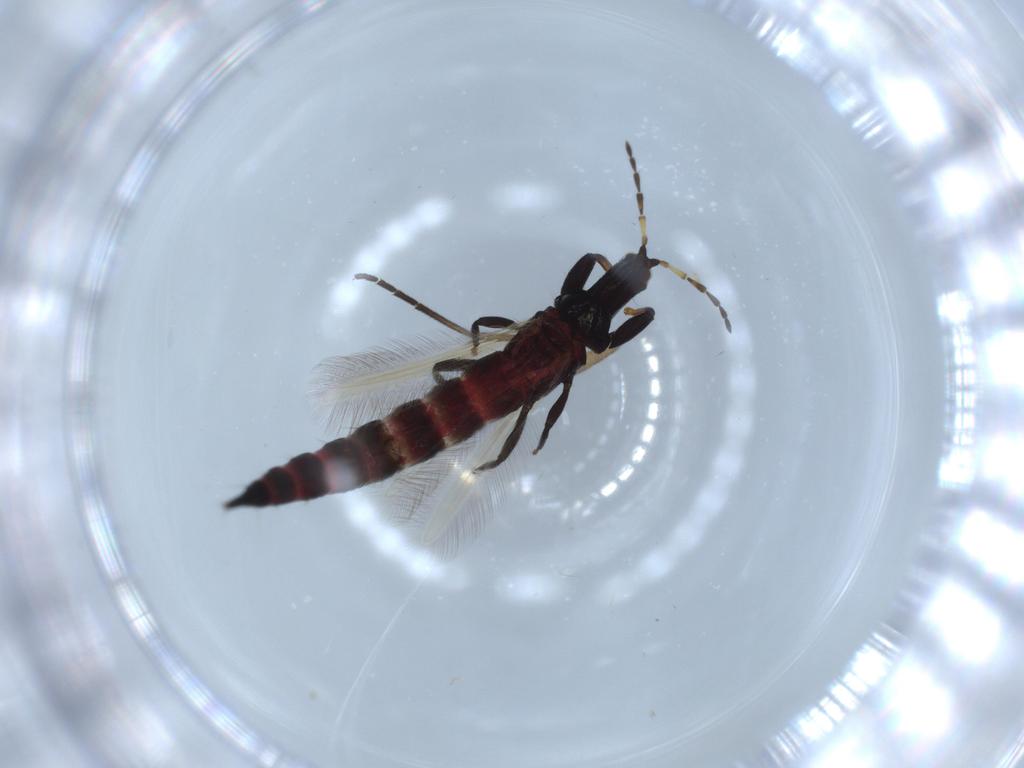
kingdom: Animalia
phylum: Arthropoda
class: Insecta
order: Thysanoptera
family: Phlaeothripidae
